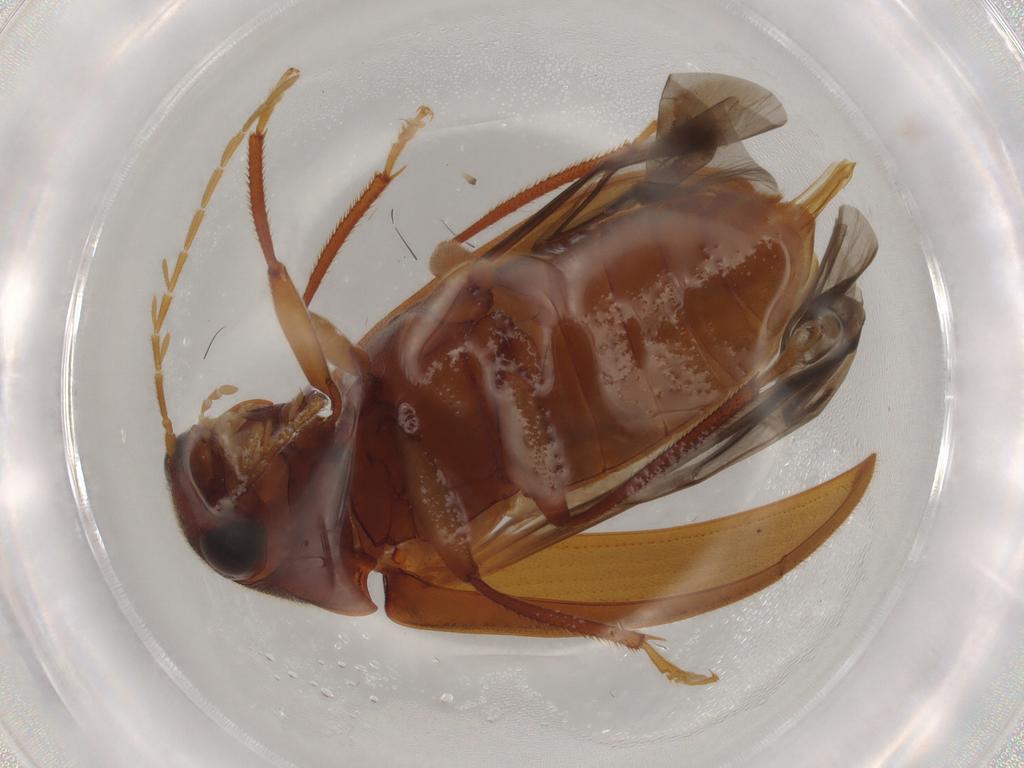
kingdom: Animalia
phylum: Arthropoda
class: Insecta
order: Coleoptera
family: Ptilodactylidae
